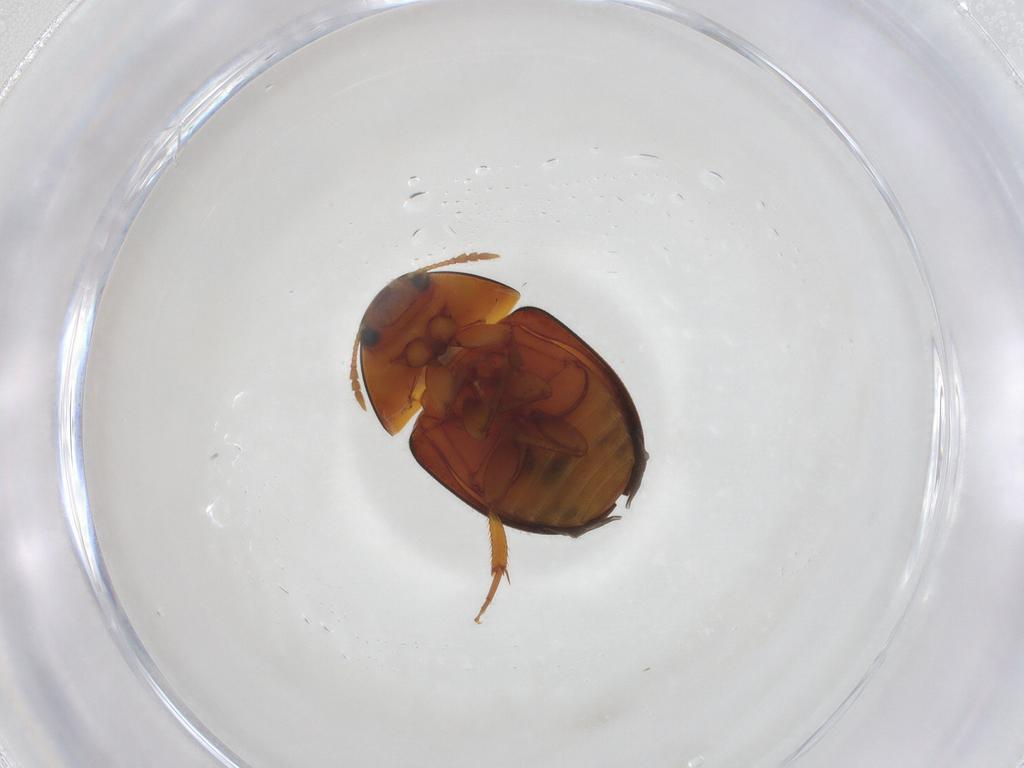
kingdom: Animalia
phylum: Arthropoda
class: Insecta
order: Coleoptera
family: Phalacridae
